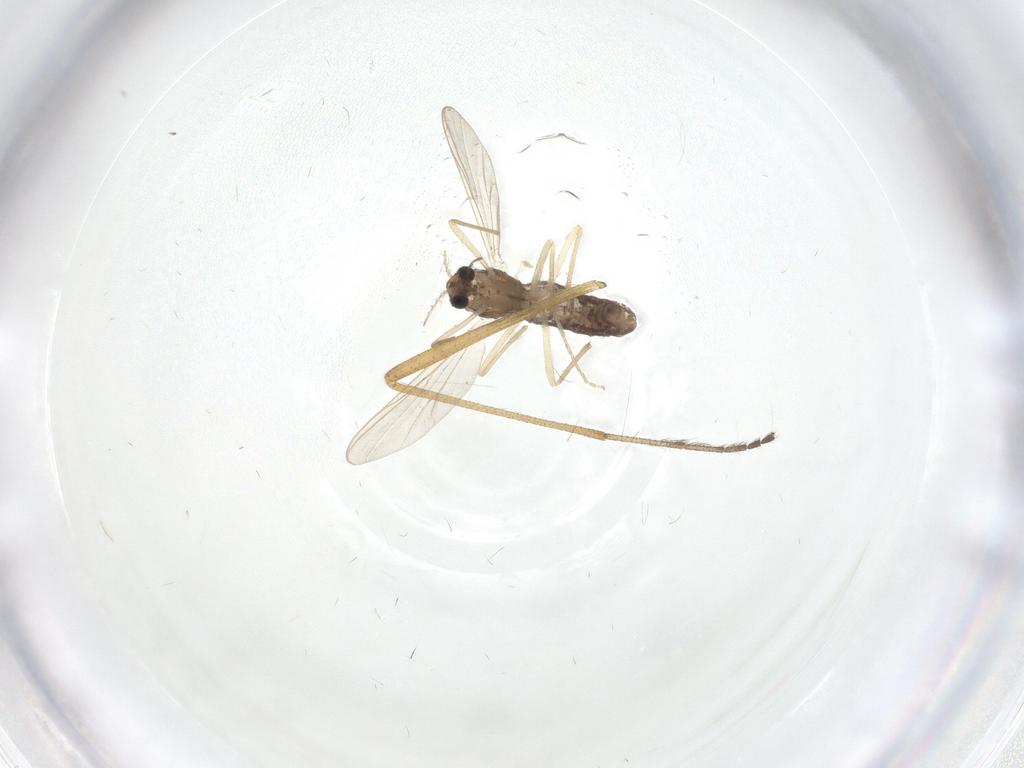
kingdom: Animalia
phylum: Arthropoda
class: Insecta
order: Diptera
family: Chironomidae
